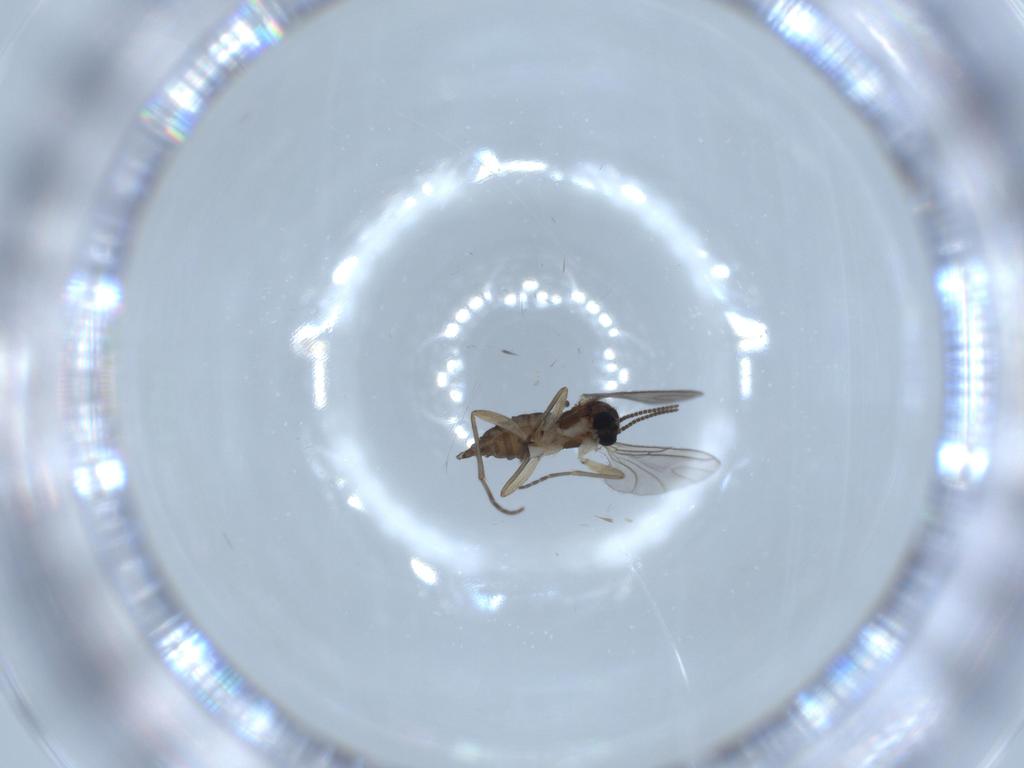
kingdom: Animalia
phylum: Arthropoda
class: Insecta
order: Diptera
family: Sciaridae
